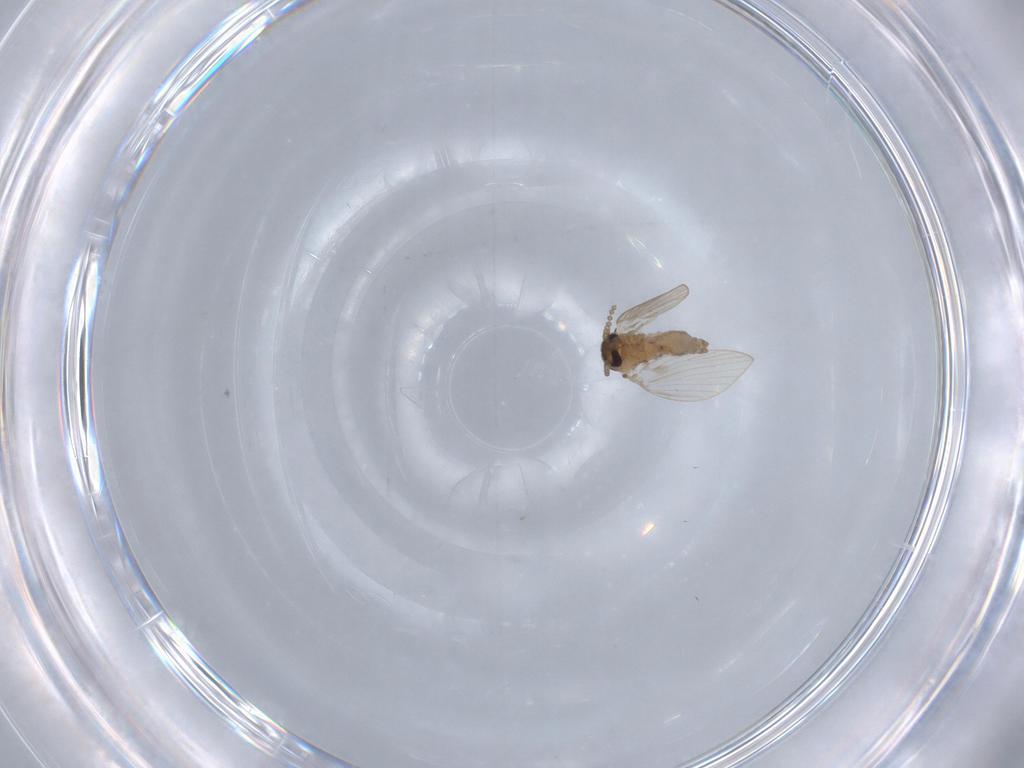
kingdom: Animalia
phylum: Arthropoda
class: Insecta
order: Diptera
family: Psychodidae
